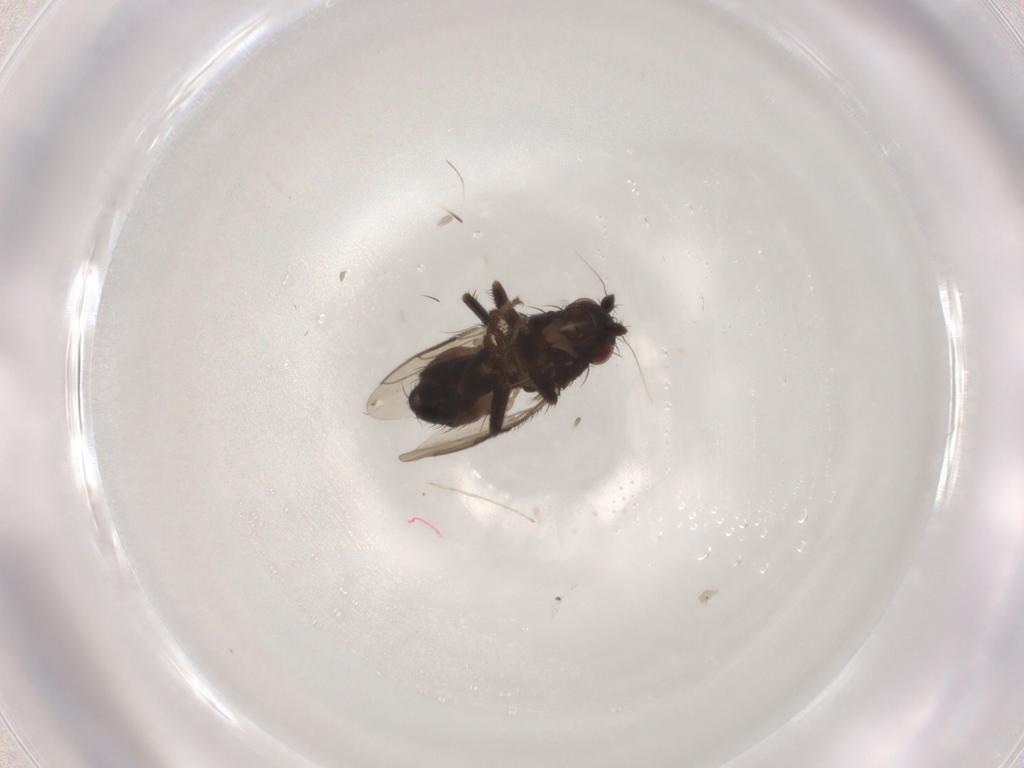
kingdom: Animalia
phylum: Arthropoda
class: Insecta
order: Diptera
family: Sphaeroceridae
